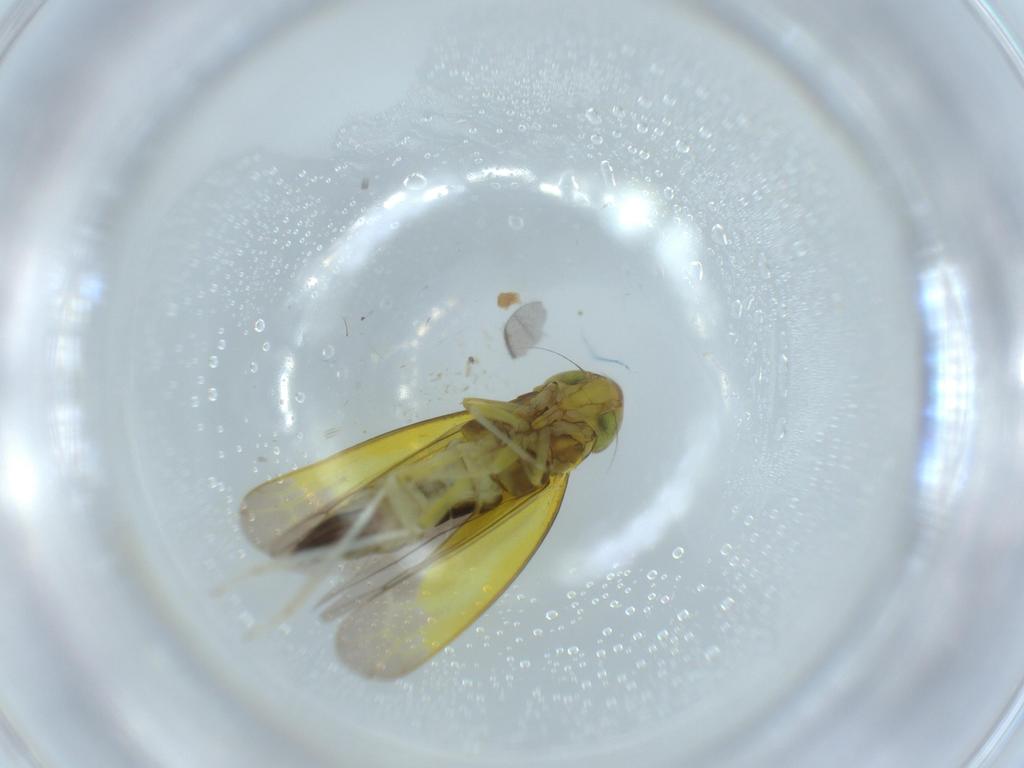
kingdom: Animalia
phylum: Arthropoda
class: Insecta
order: Hemiptera
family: Cicadellidae
